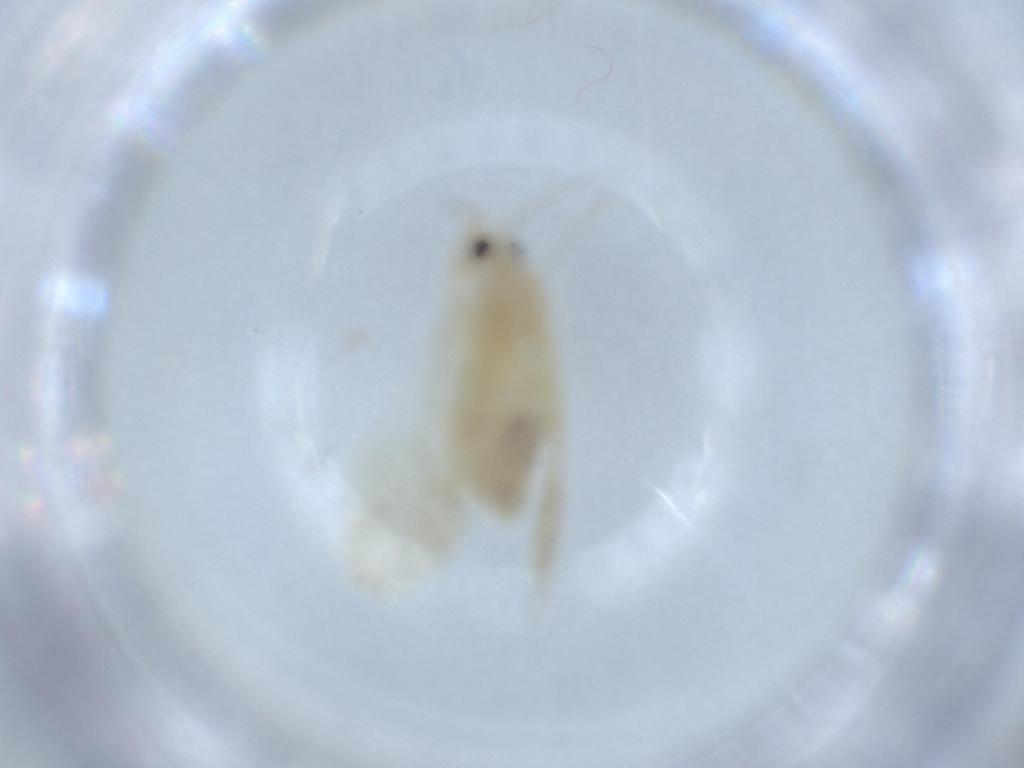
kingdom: Animalia
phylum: Arthropoda
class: Insecta
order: Psocodea
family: Caeciliusidae
